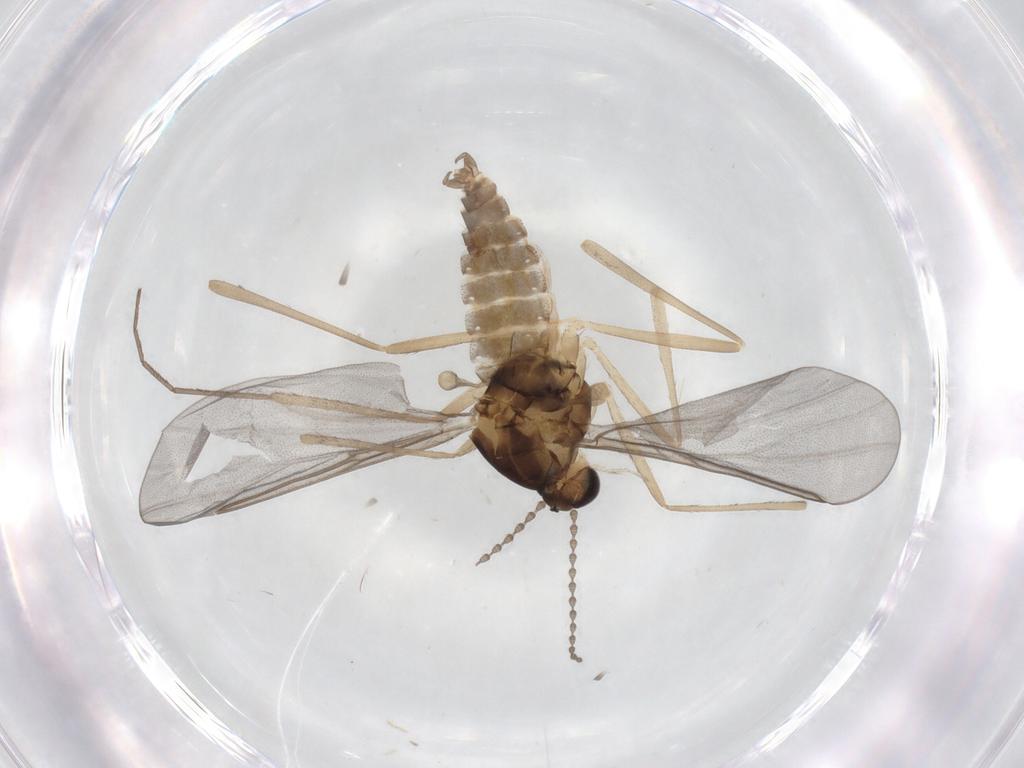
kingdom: Animalia
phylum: Arthropoda
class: Insecta
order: Diptera
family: Cecidomyiidae
